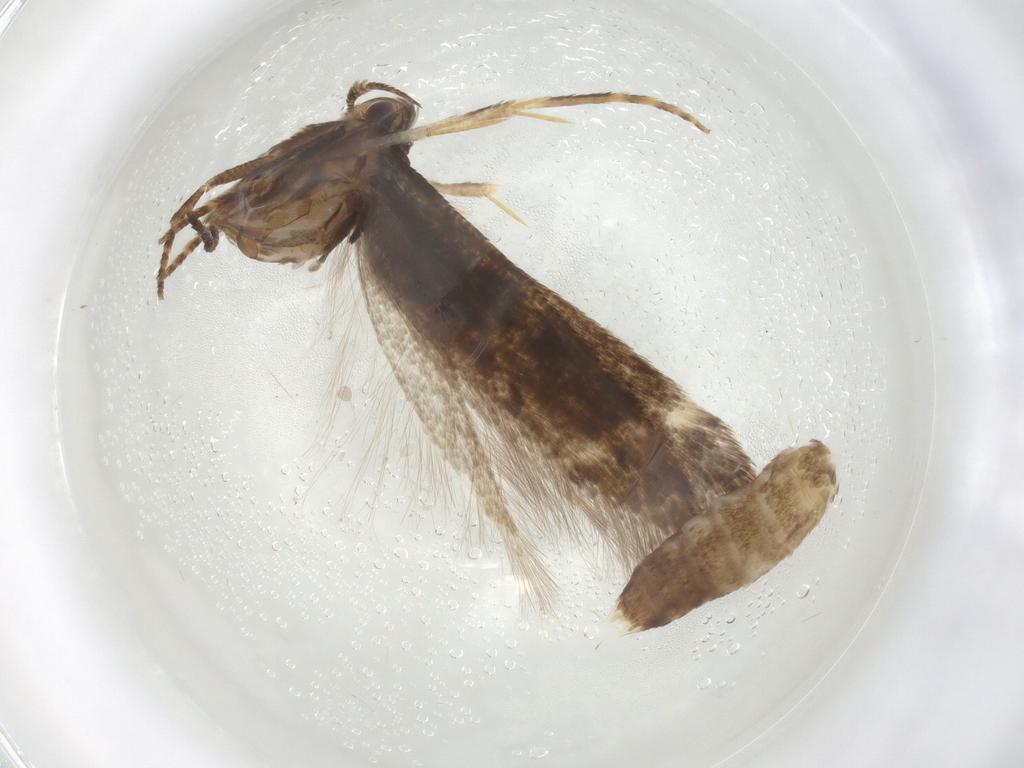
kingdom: Animalia
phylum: Arthropoda
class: Insecta
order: Lepidoptera
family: Momphidae
